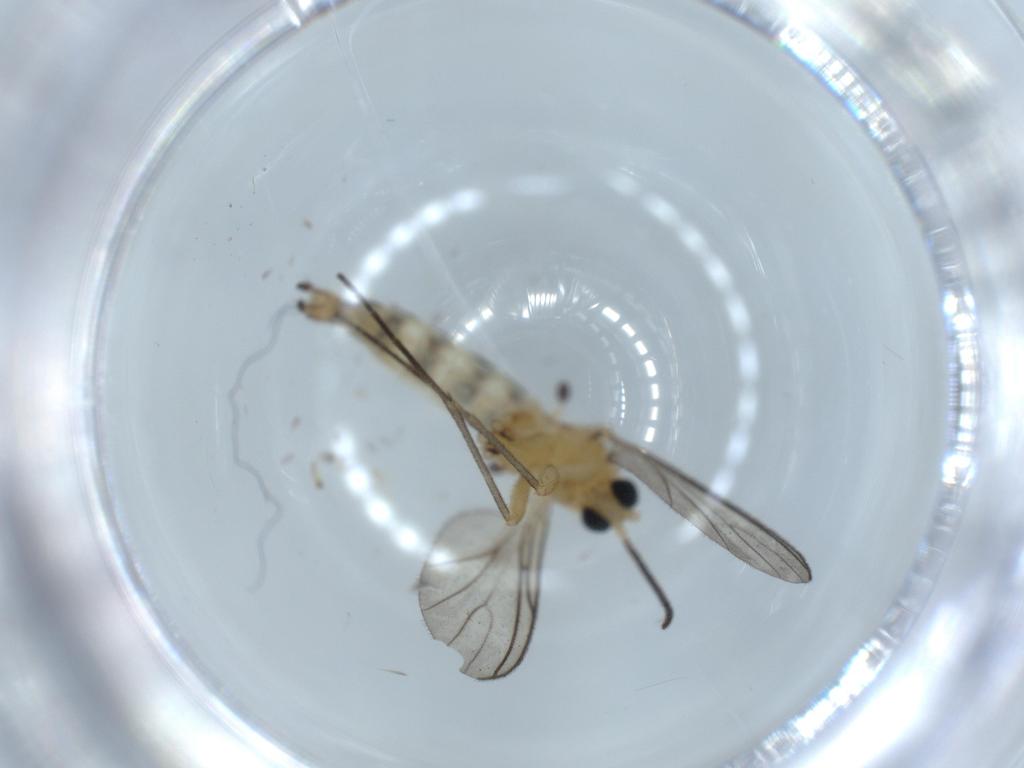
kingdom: Animalia
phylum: Arthropoda
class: Insecta
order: Diptera
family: Sciaridae
